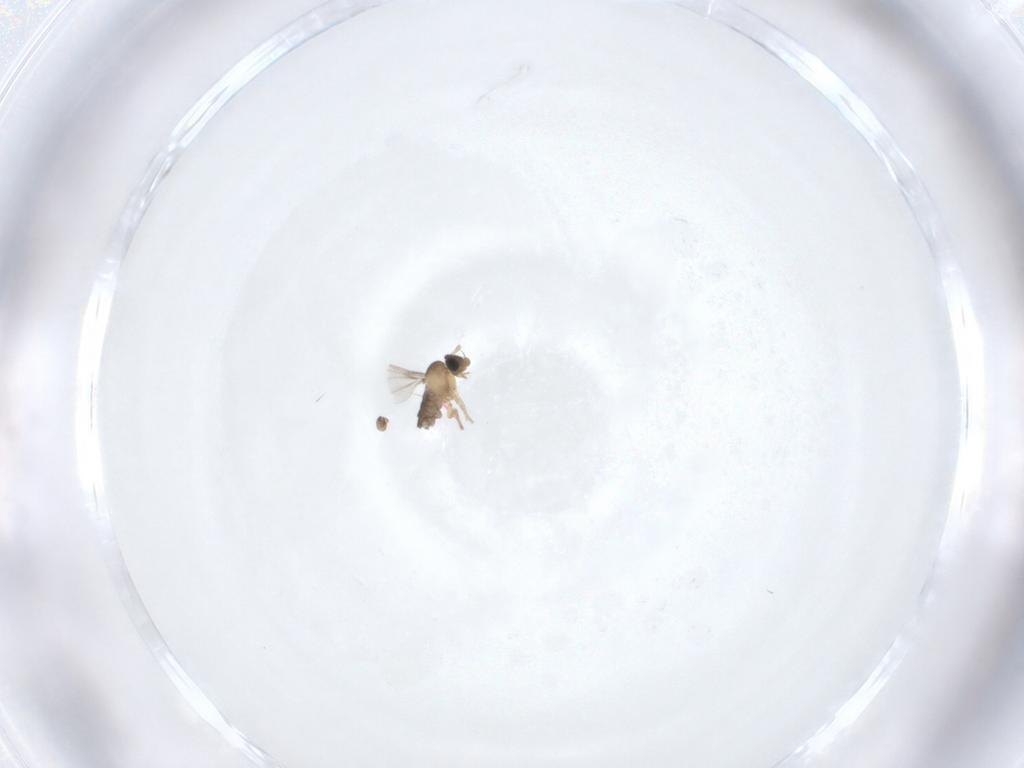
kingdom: Animalia
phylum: Arthropoda
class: Insecta
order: Diptera
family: Phoridae
